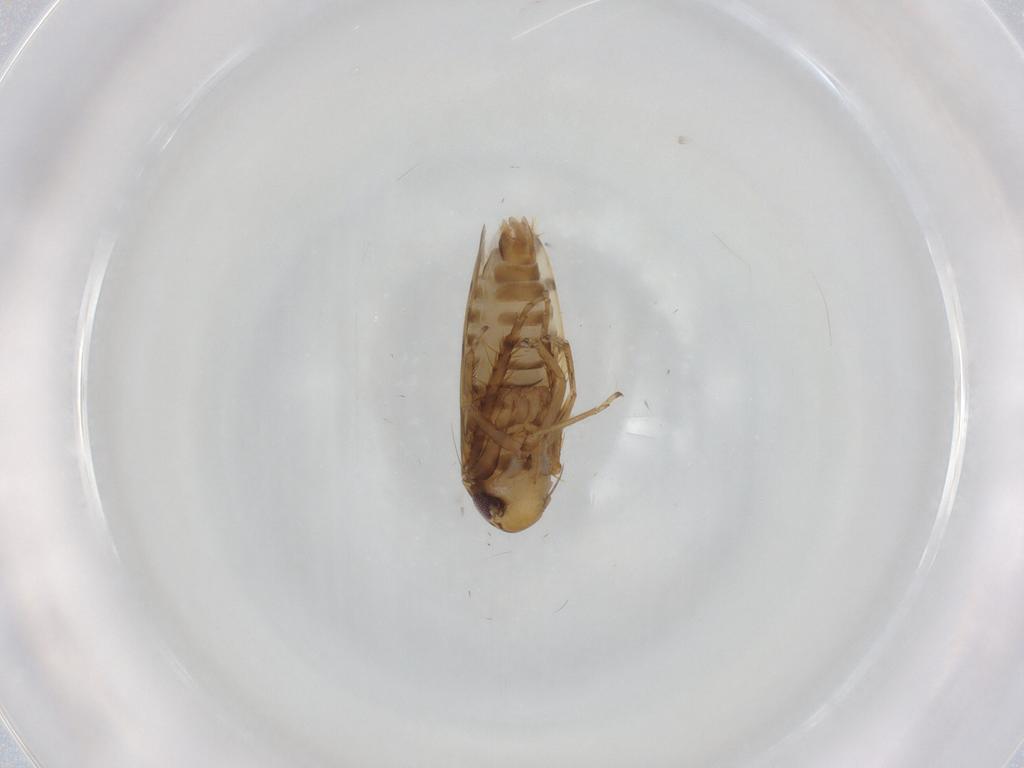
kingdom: Animalia
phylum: Arthropoda
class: Insecta
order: Hemiptera
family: Cicadellidae
